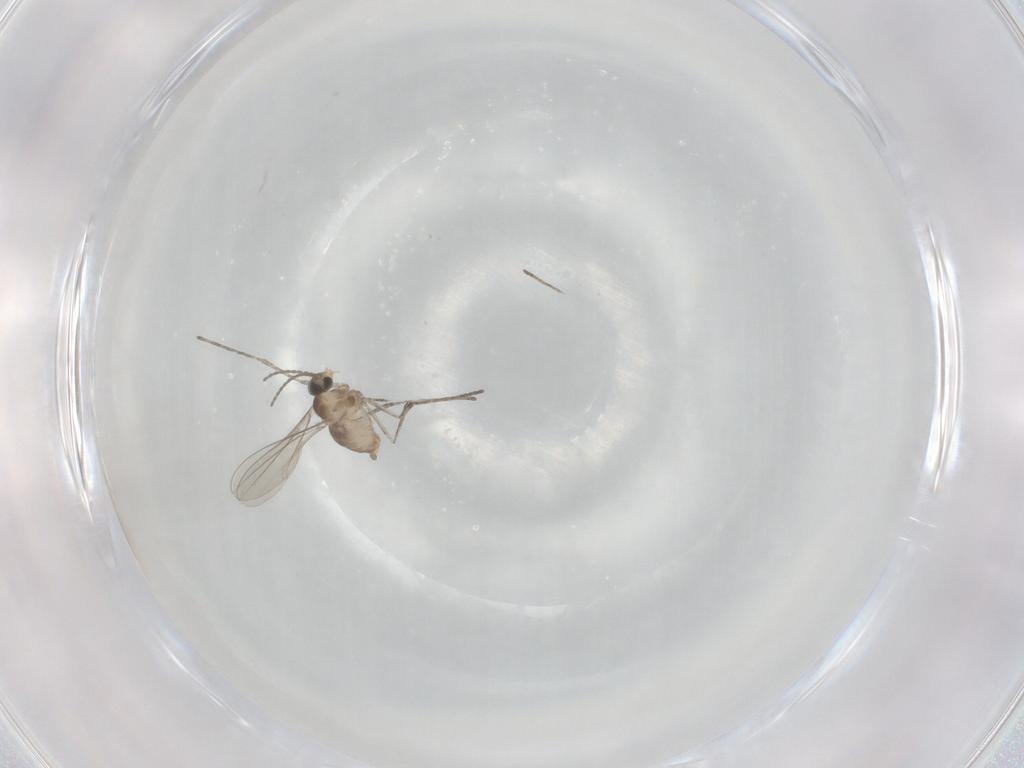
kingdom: Animalia
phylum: Arthropoda
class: Insecta
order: Diptera
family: Cecidomyiidae
